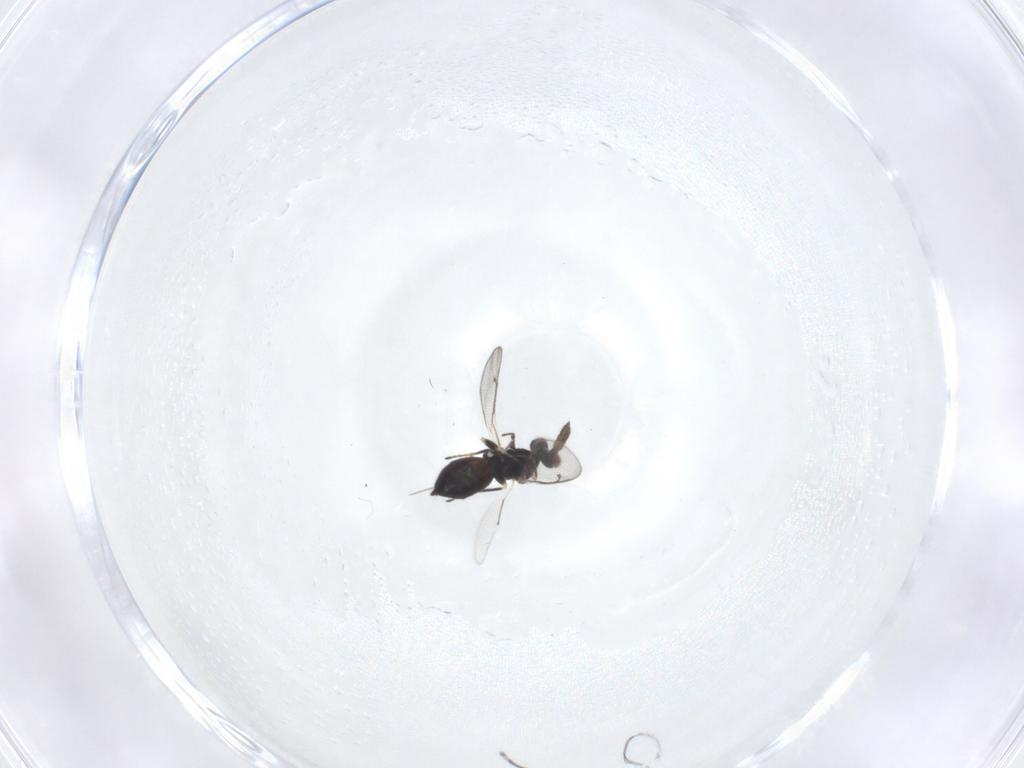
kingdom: Animalia
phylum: Arthropoda
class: Insecta
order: Hymenoptera
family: Eulophidae
